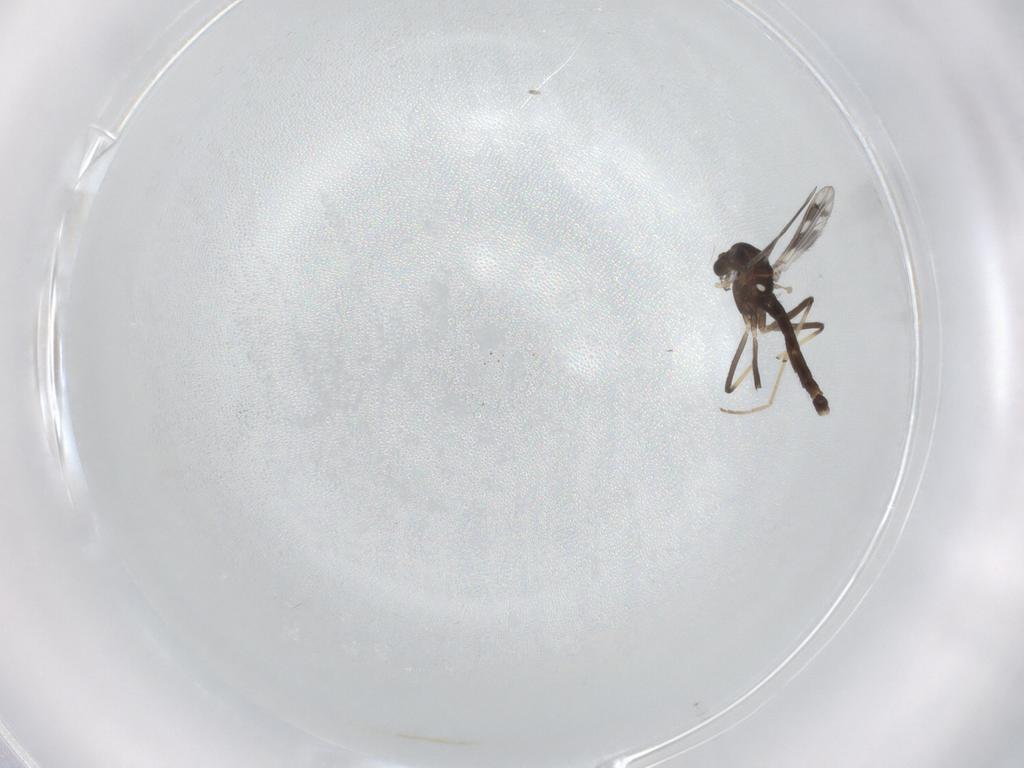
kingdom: Animalia
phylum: Arthropoda
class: Insecta
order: Diptera
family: Chironomidae
